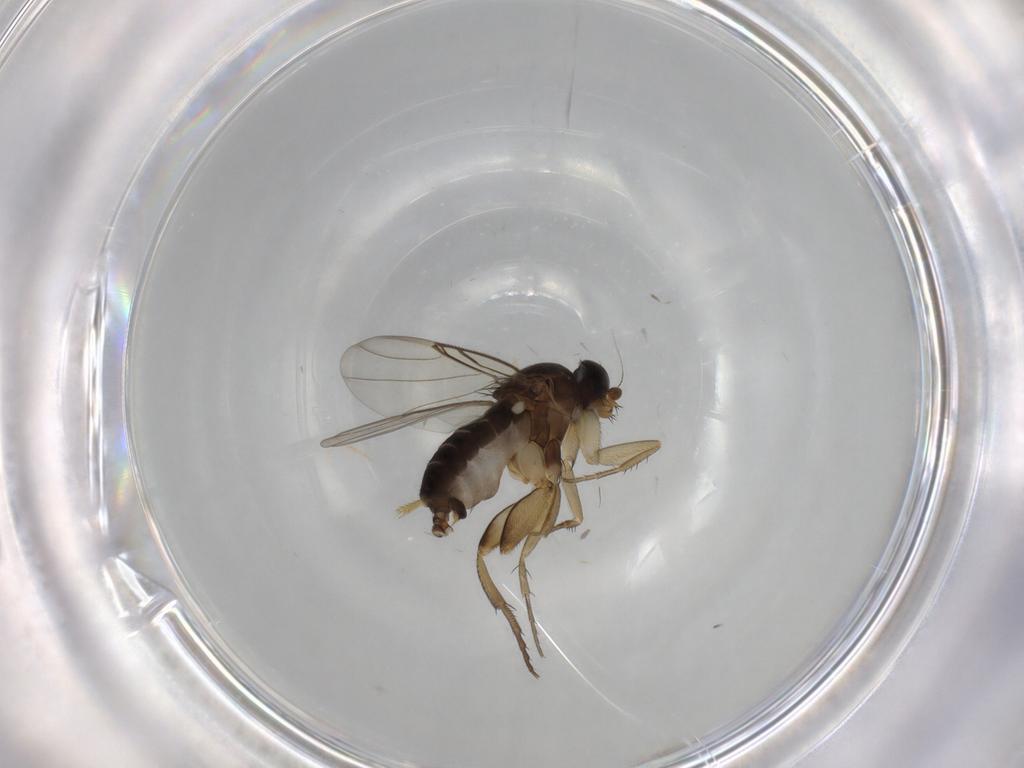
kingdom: Animalia
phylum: Arthropoda
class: Insecta
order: Diptera
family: Phoridae
